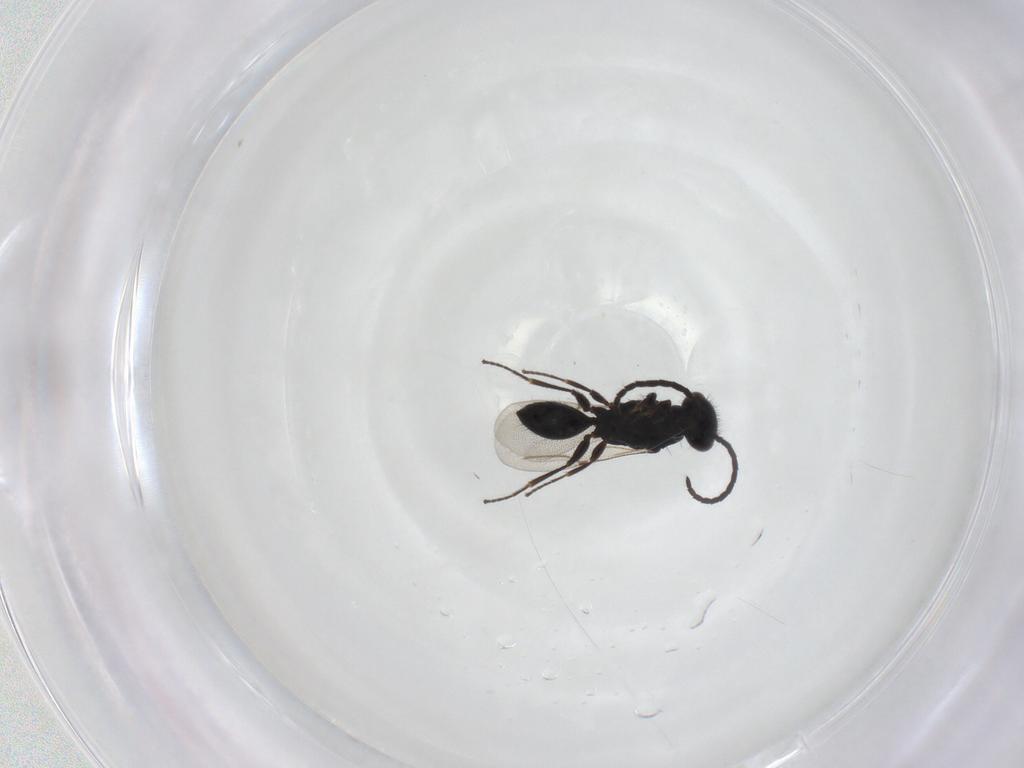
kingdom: Animalia
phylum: Arthropoda
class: Insecta
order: Hymenoptera
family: Bethylidae
